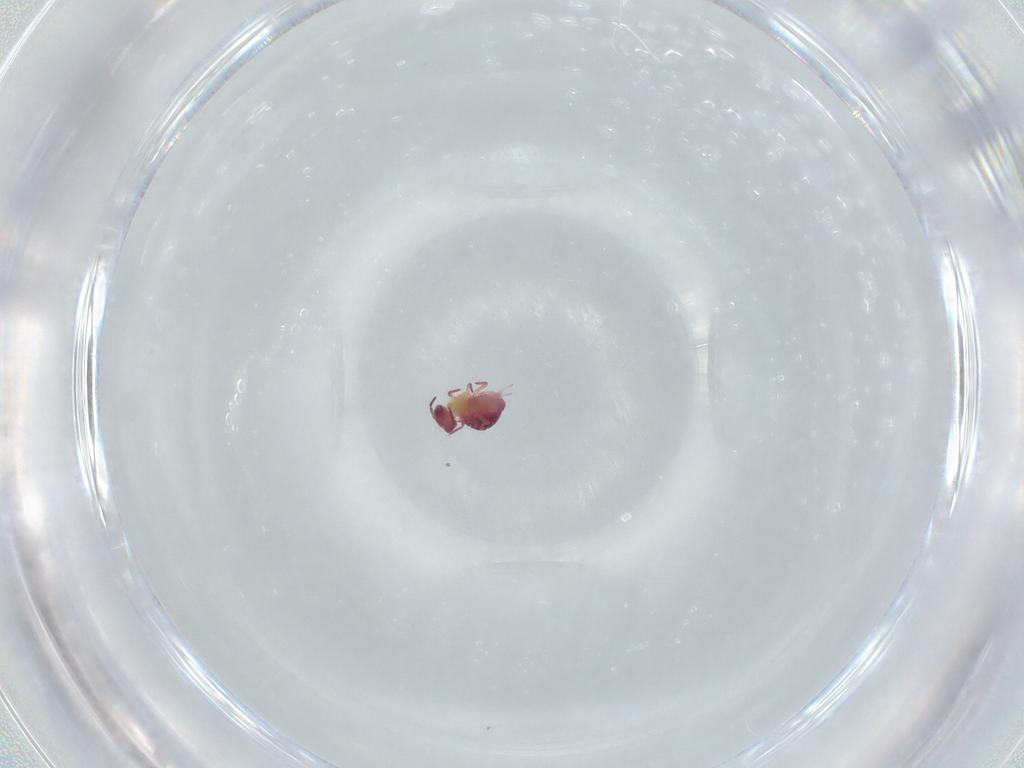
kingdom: Animalia
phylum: Arthropoda
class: Collembola
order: Symphypleona
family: Sminthurididae
